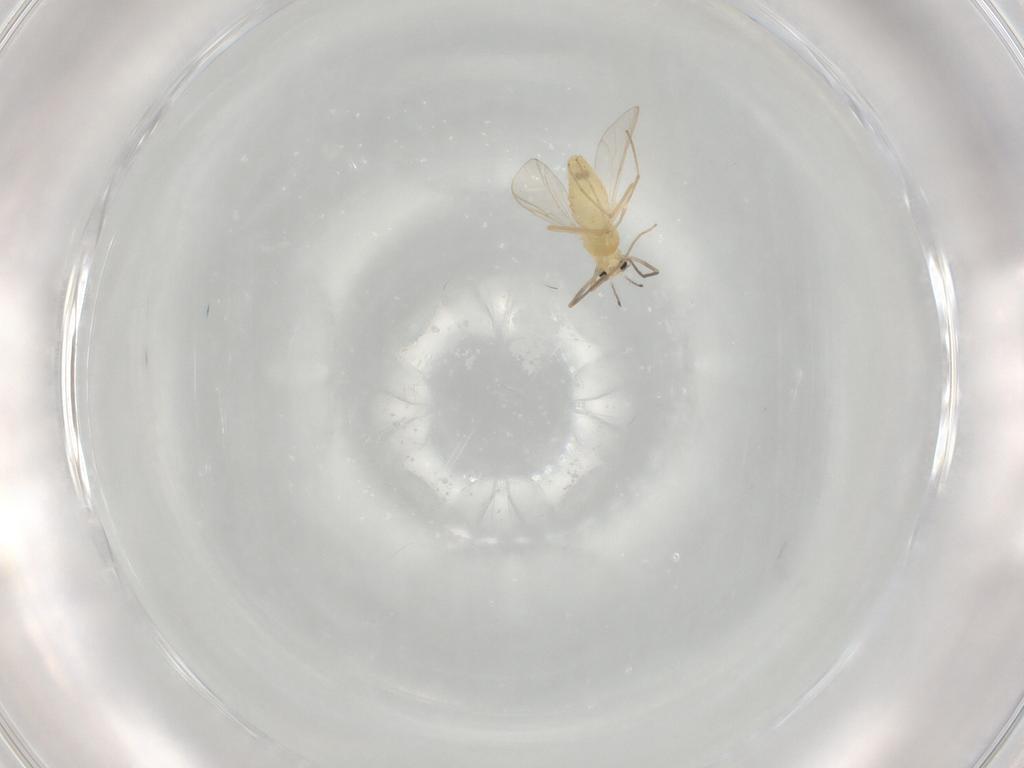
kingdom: Animalia
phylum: Arthropoda
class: Insecta
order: Diptera
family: Chironomidae
